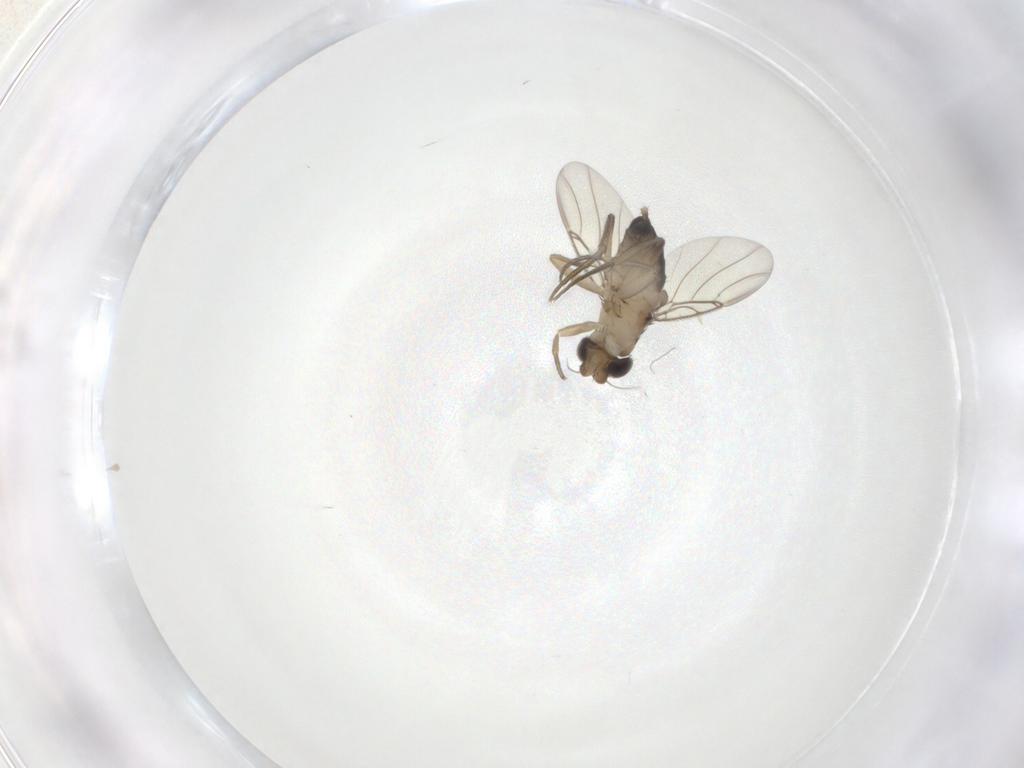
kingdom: Animalia
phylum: Arthropoda
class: Insecta
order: Diptera
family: Phoridae
